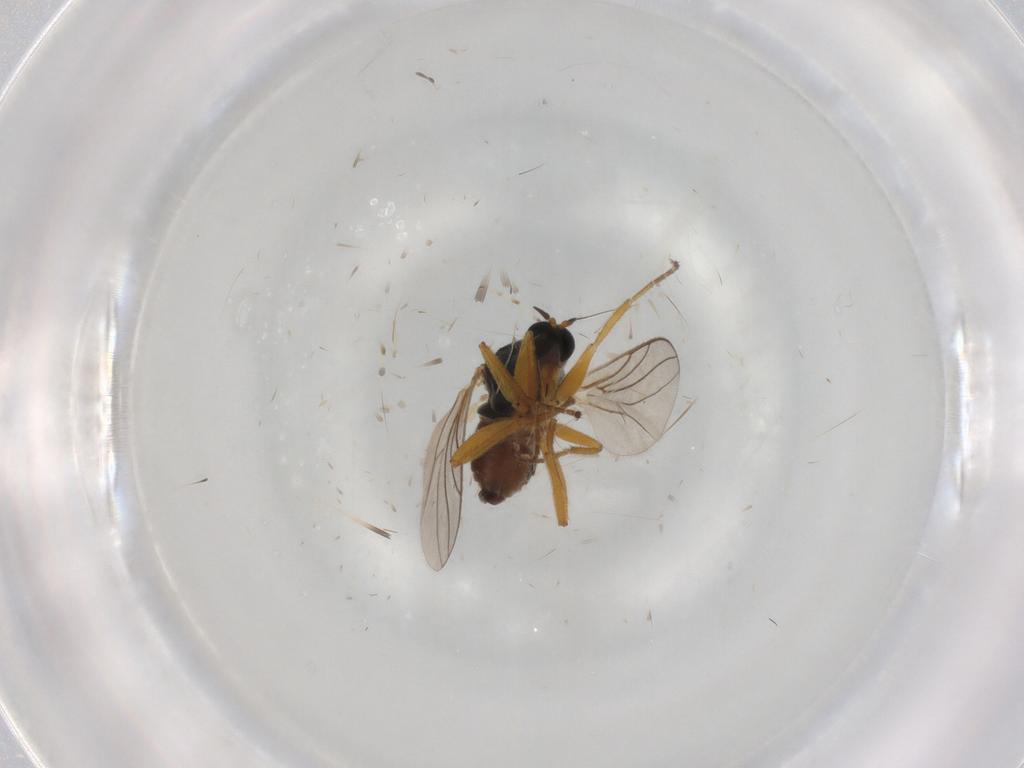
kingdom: Animalia
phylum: Arthropoda
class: Insecta
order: Diptera
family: Hybotidae
